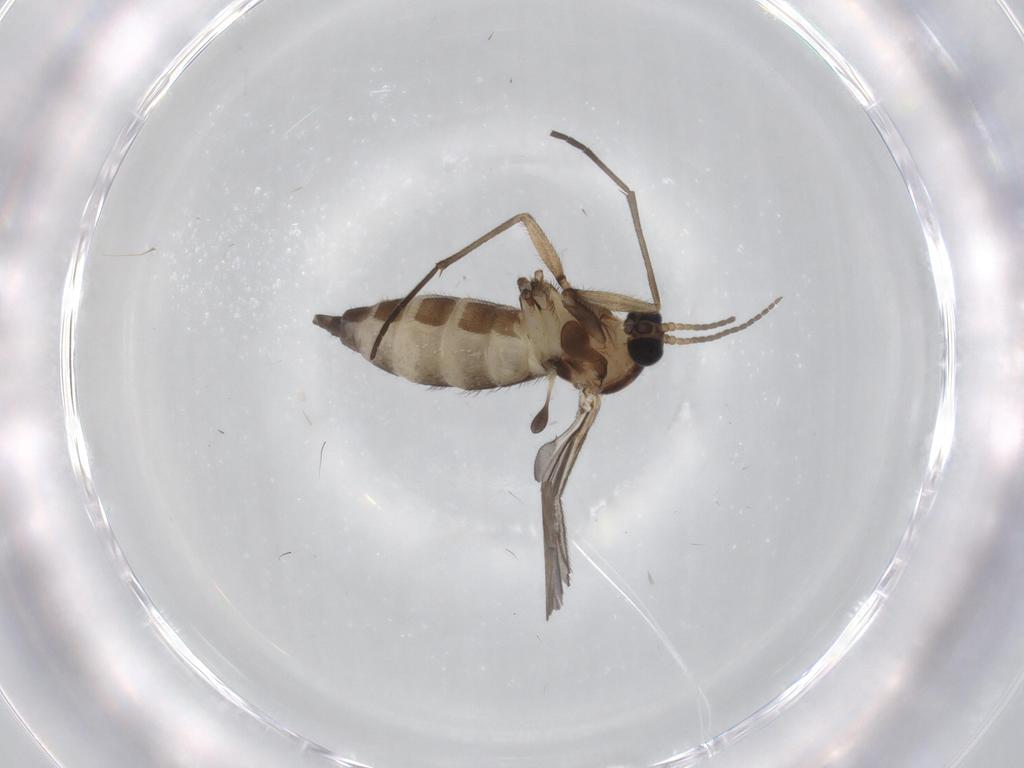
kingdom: Animalia
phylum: Arthropoda
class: Insecta
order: Diptera
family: Sciaridae
